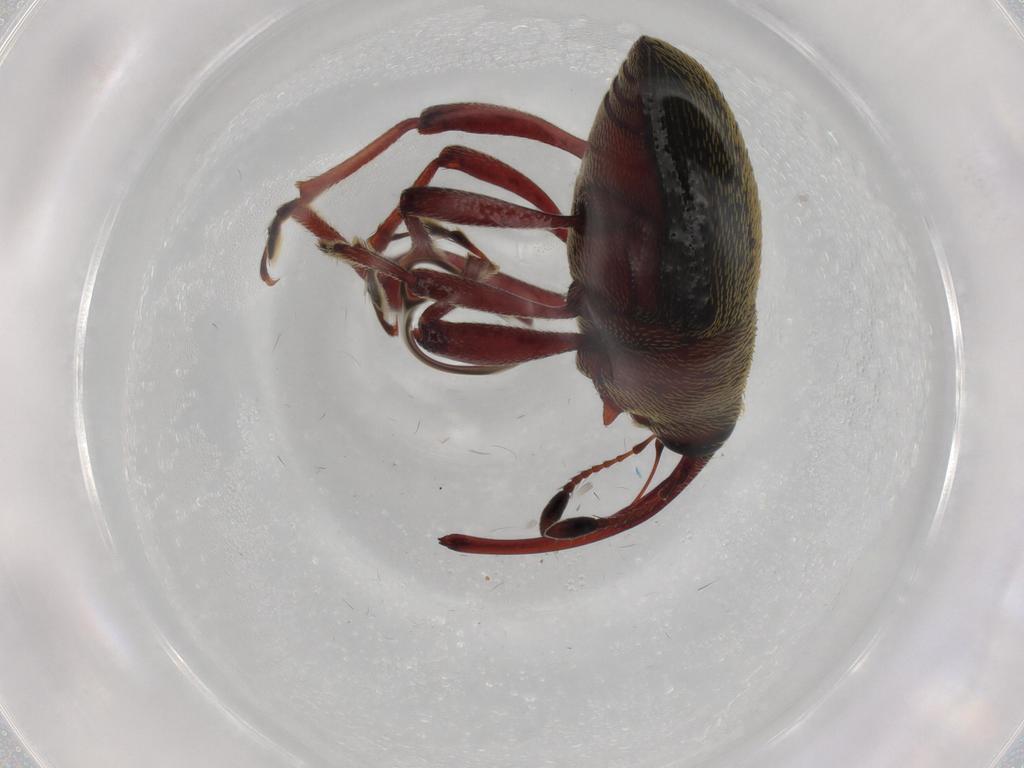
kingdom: Animalia
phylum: Arthropoda
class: Insecta
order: Coleoptera
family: Curculionidae
